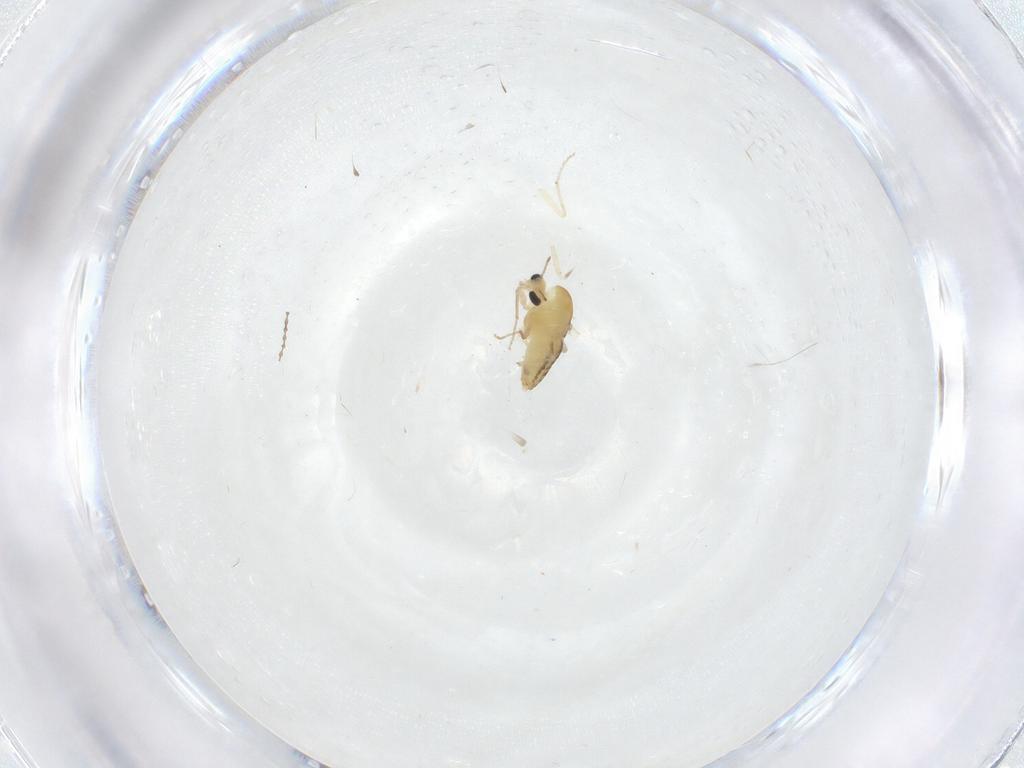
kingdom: Animalia
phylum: Arthropoda
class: Insecta
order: Diptera
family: Chironomidae
